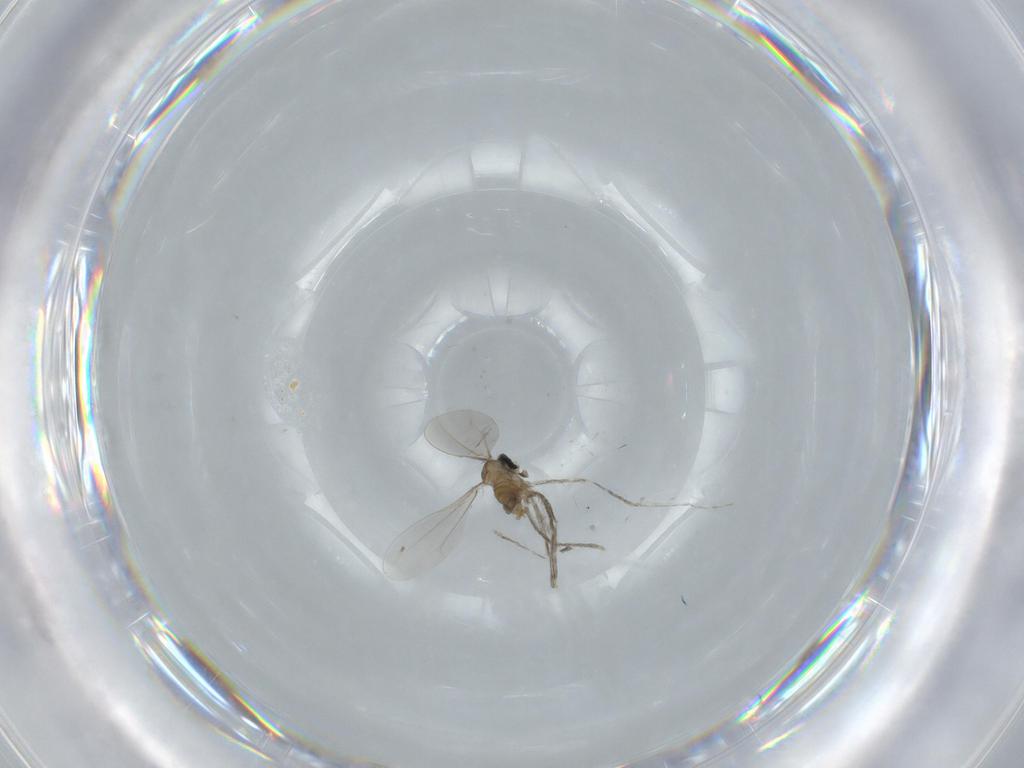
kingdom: Animalia
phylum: Arthropoda
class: Insecta
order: Diptera
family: Cecidomyiidae
